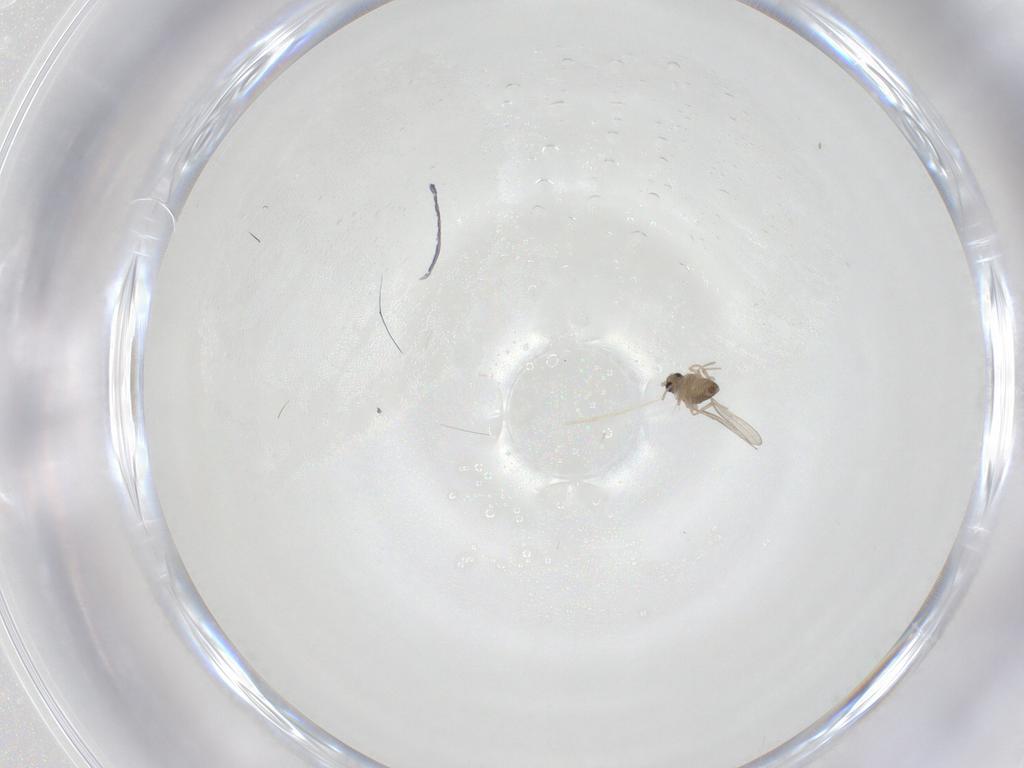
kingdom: Animalia
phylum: Arthropoda
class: Insecta
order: Diptera
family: Cecidomyiidae
